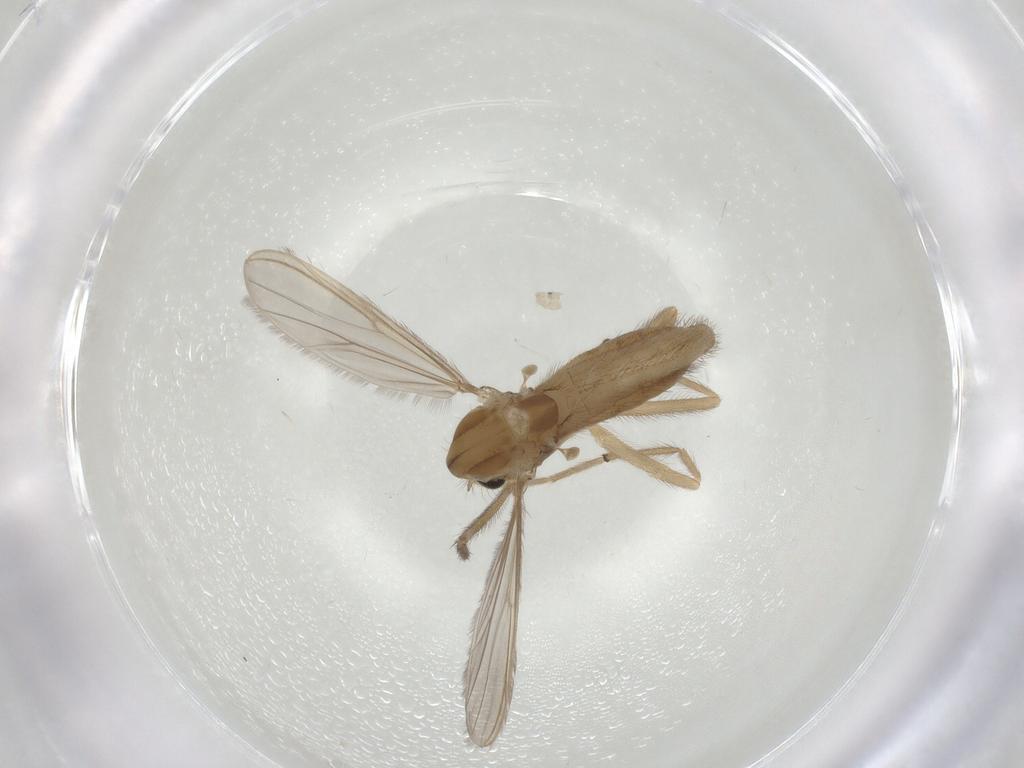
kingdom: Animalia
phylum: Arthropoda
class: Insecta
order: Diptera
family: Chironomidae
